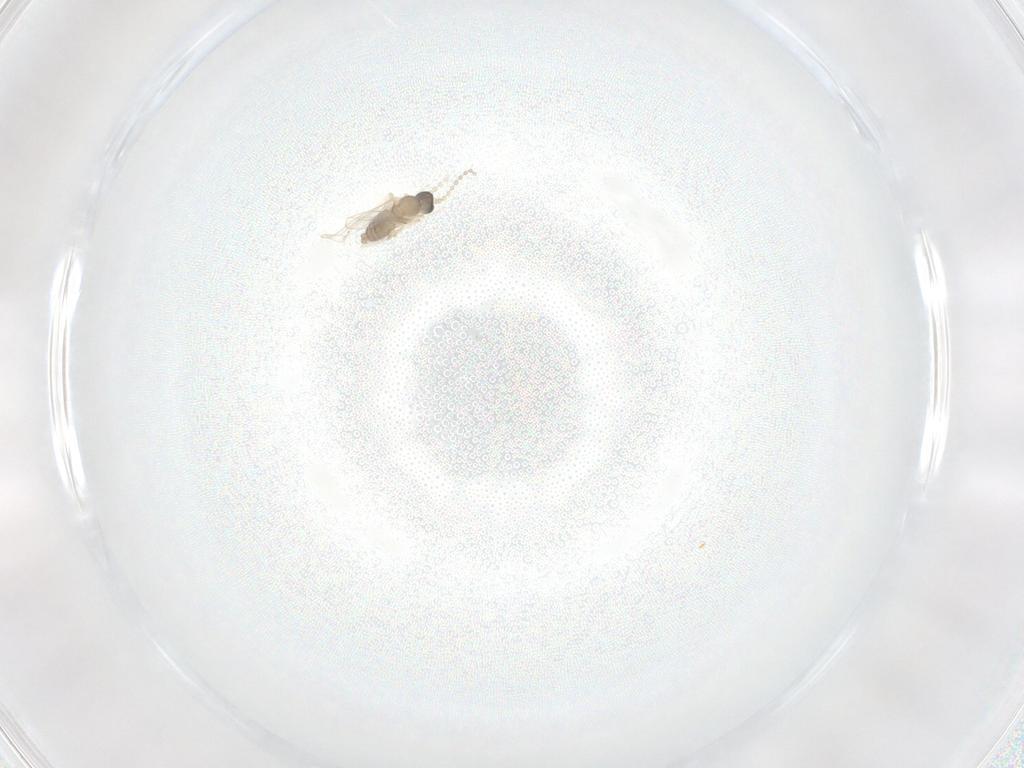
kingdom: Animalia
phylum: Arthropoda
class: Insecta
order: Diptera
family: Cecidomyiidae
